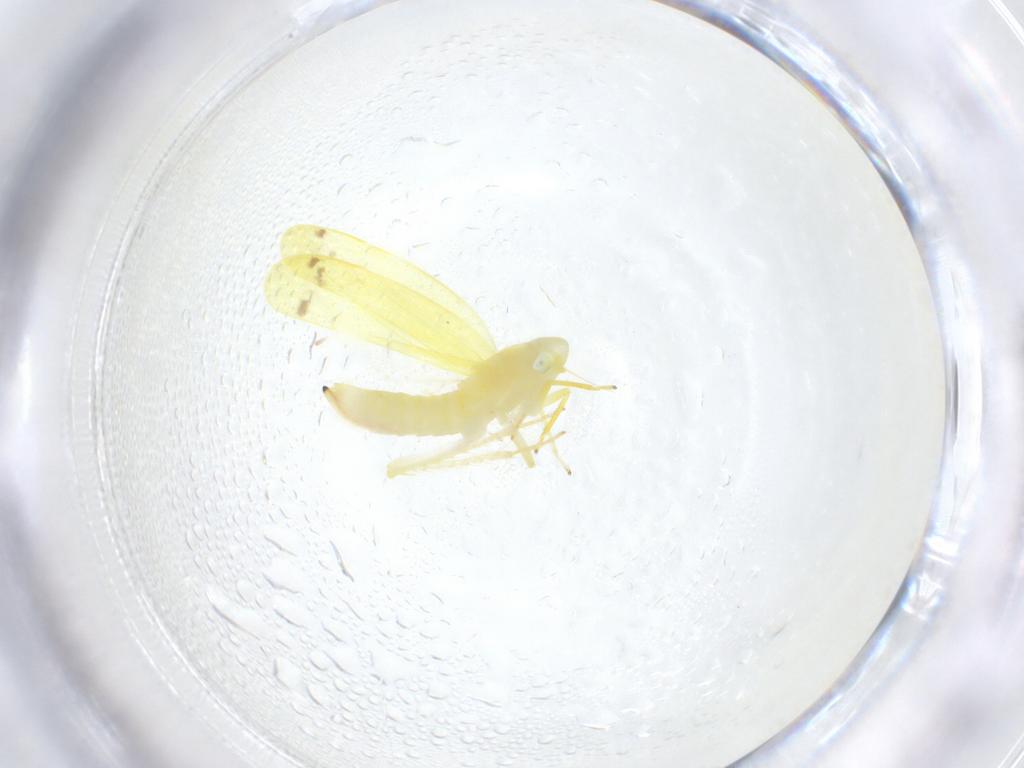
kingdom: Animalia
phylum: Arthropoda
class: Insecta
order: Hemiptera
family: Cicadellidae
